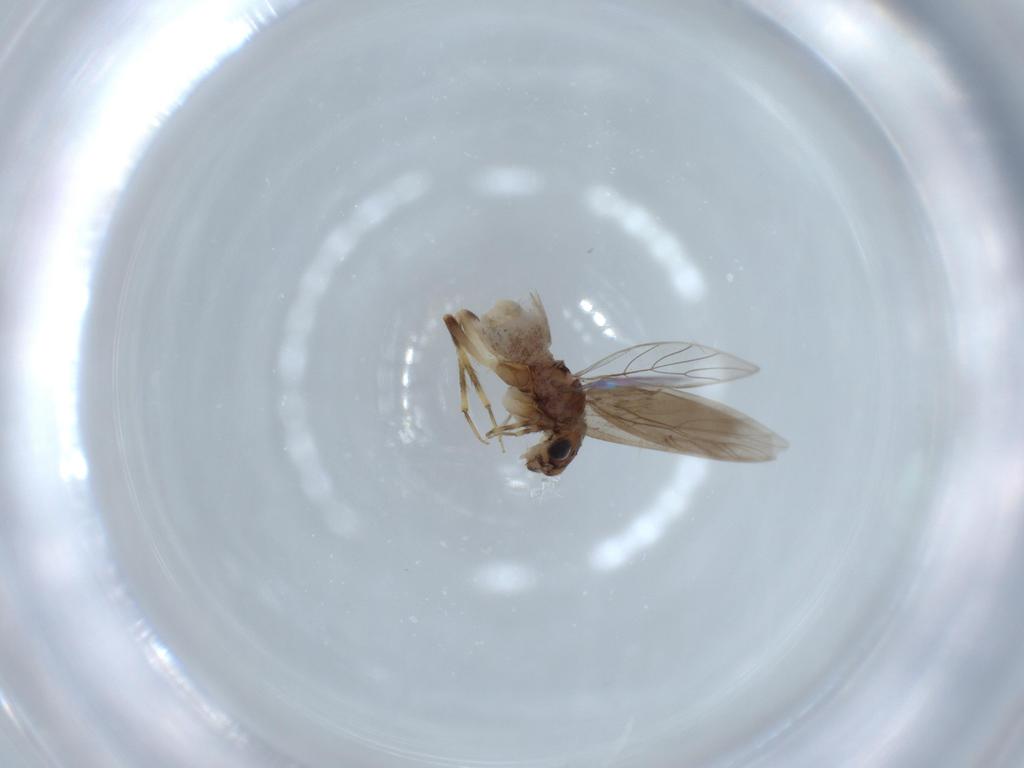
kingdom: Animalia
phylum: Arthropoda
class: Insecta
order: Psocodea
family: Lepidopsocidae
